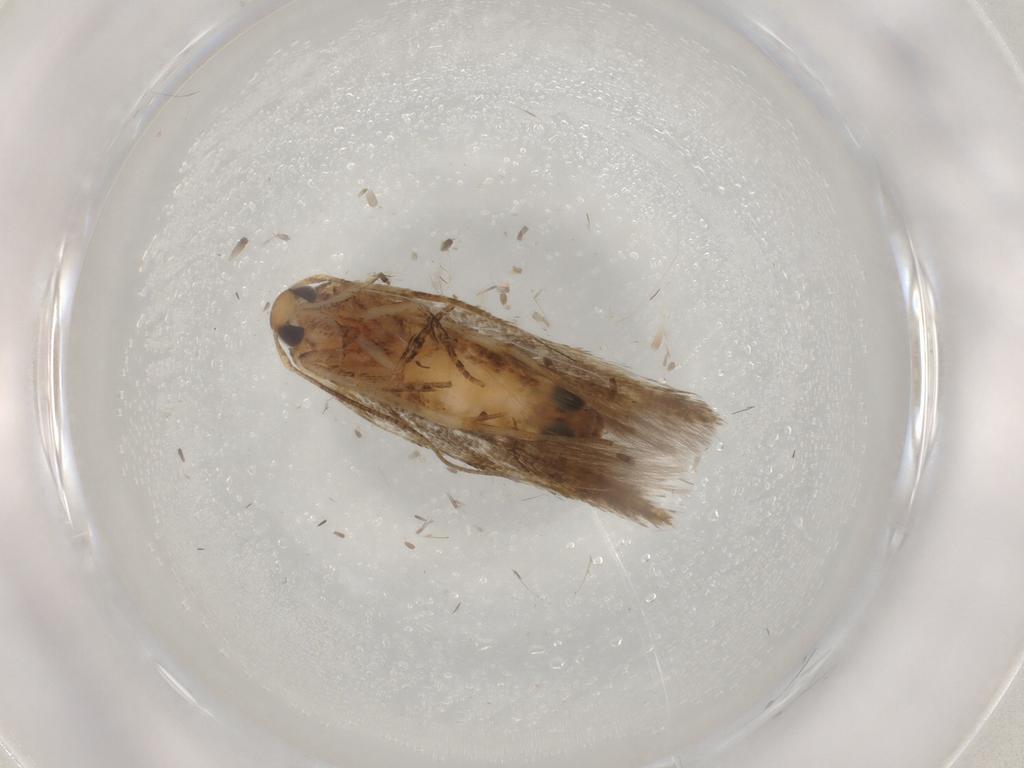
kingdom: Animalia
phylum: Arthropoda
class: Insecta
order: Lepidoptera
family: Cosmopterigidae
